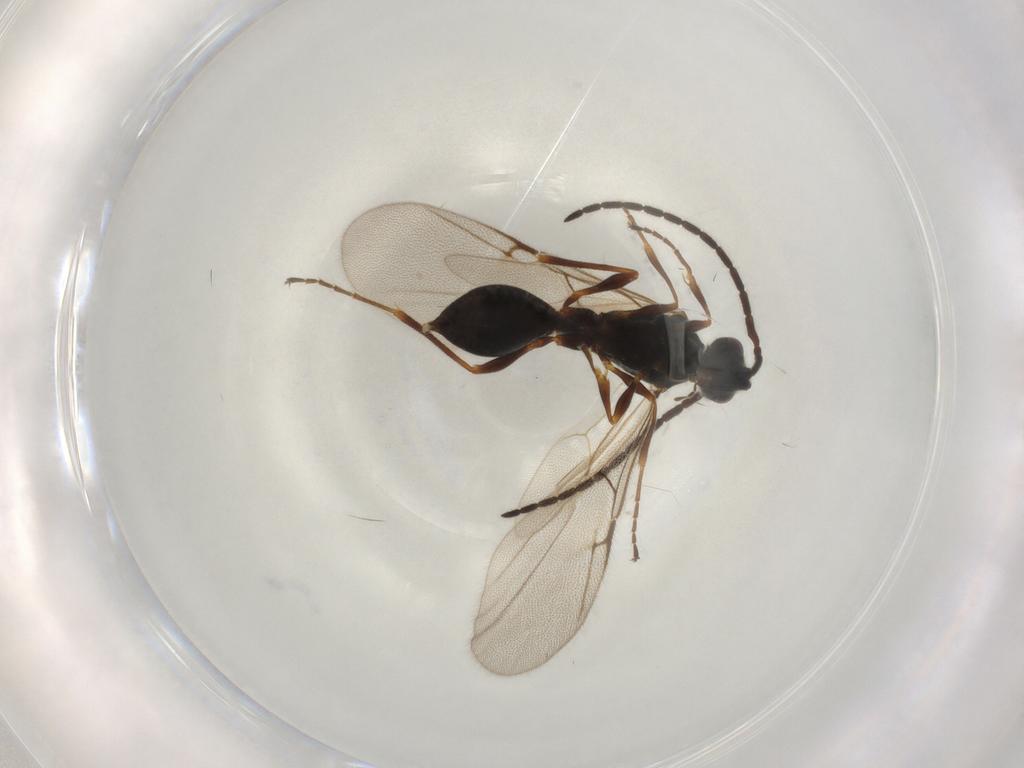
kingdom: Animalia
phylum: Arthropoda
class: Insecta
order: Hymenoptera
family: Ichneumonidae
